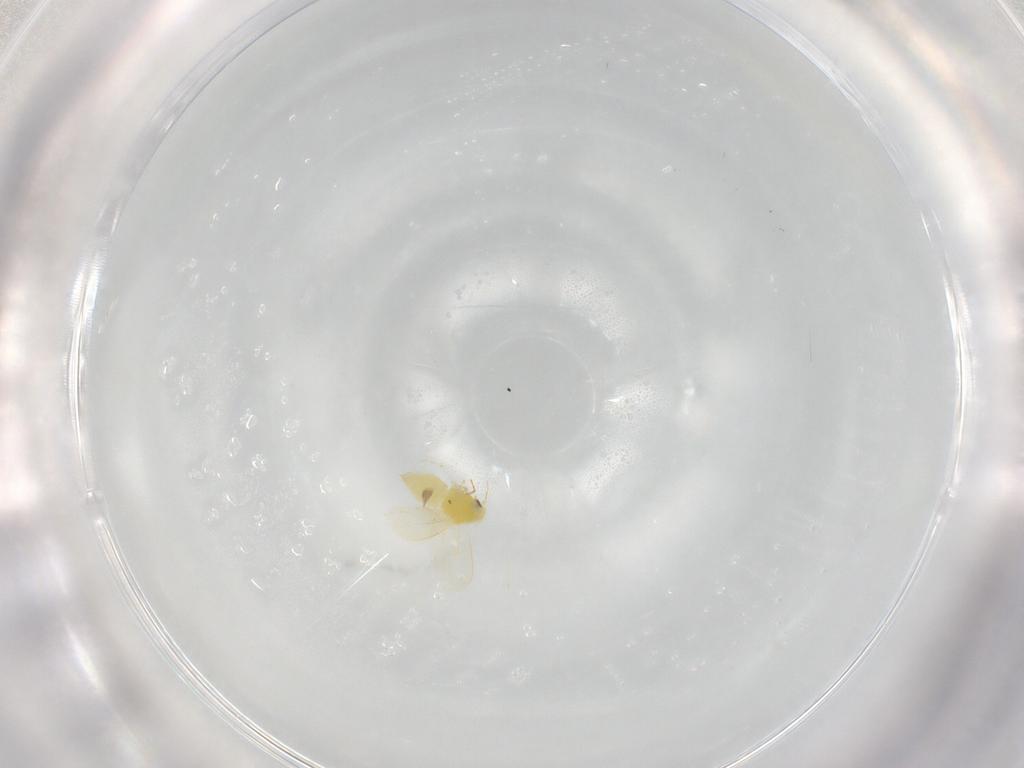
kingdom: Animalia
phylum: Arthropoda
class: Insecta
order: Hemiptera
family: Aleyrodidae
